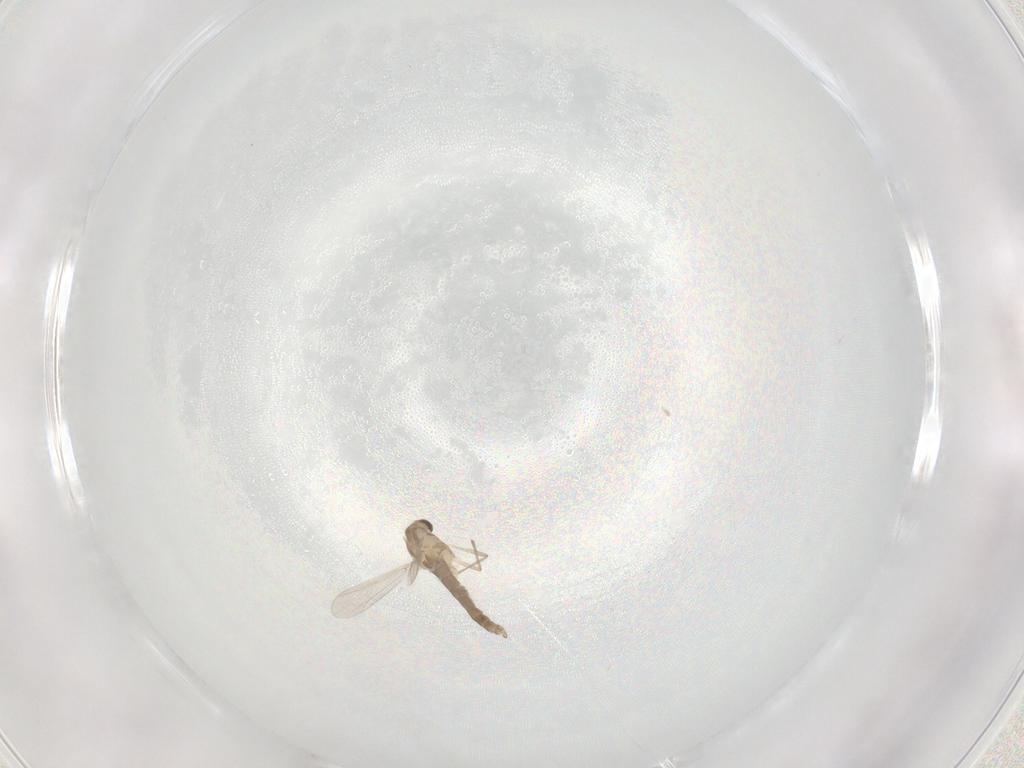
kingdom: Animalia
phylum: Arthropoda
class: Insecta
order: Diptera
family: Chironomidae
